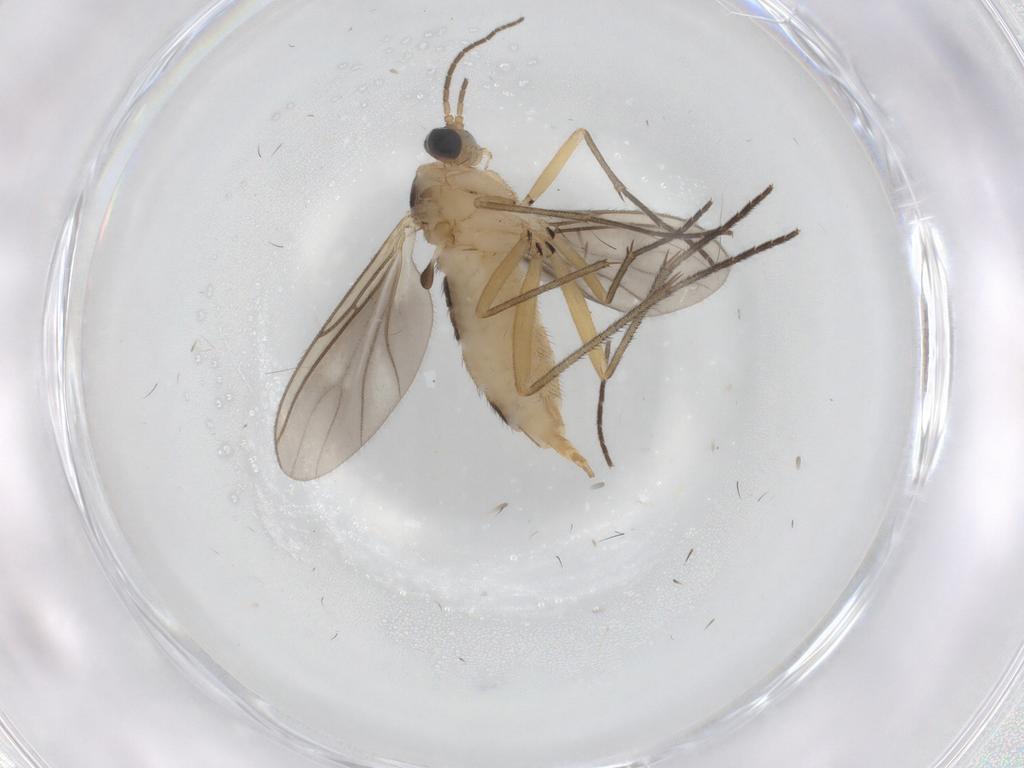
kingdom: Animalia
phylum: Arthropoda
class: Insecta
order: Diptera
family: Sciaridae
